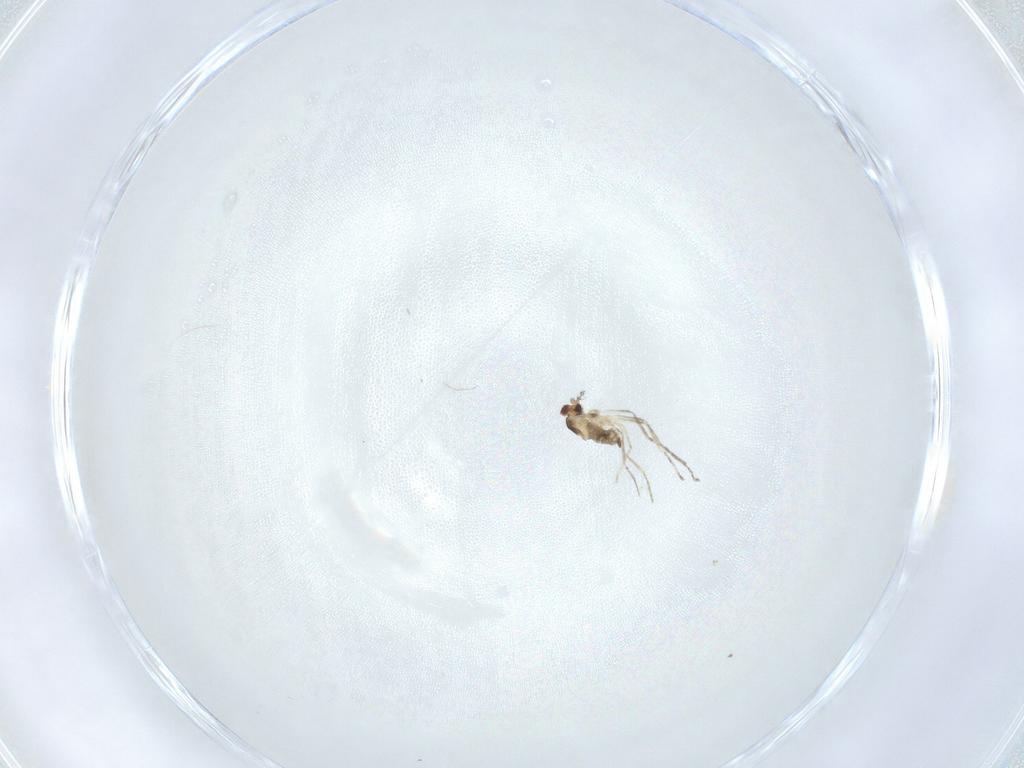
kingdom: Animalia
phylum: Arthropoda
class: Insecta
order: Diptera
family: Cecidomyiidae
